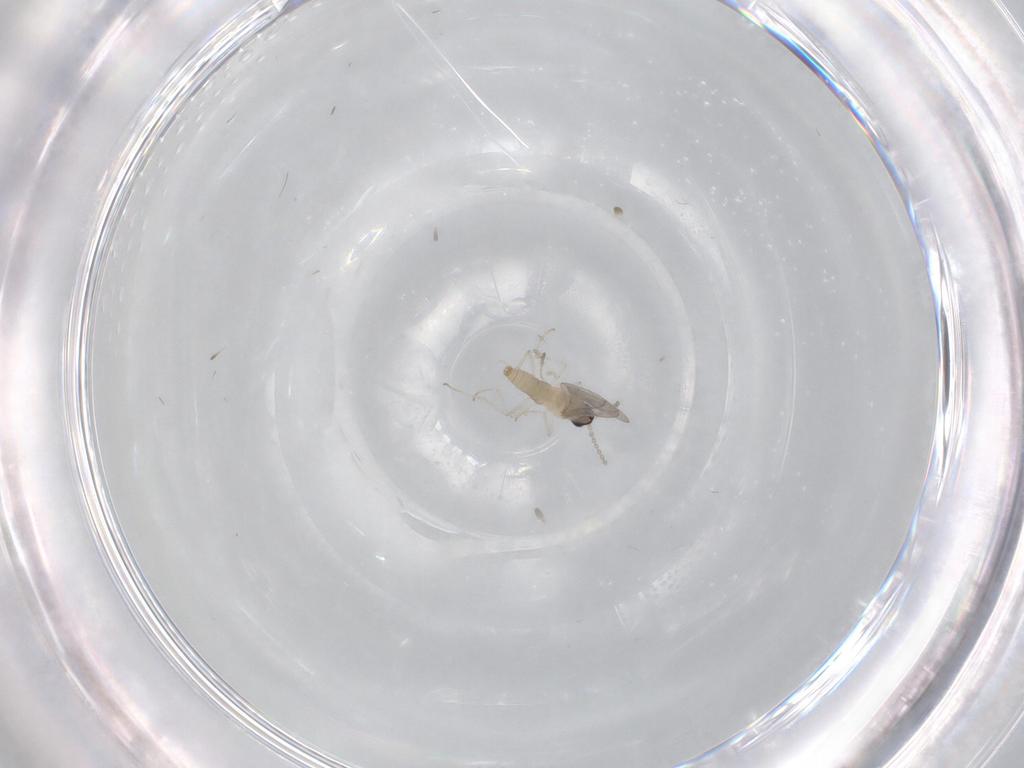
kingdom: Animalia
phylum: Arthropoda
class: Insecta
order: Diptera
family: Cecidomyiidae
